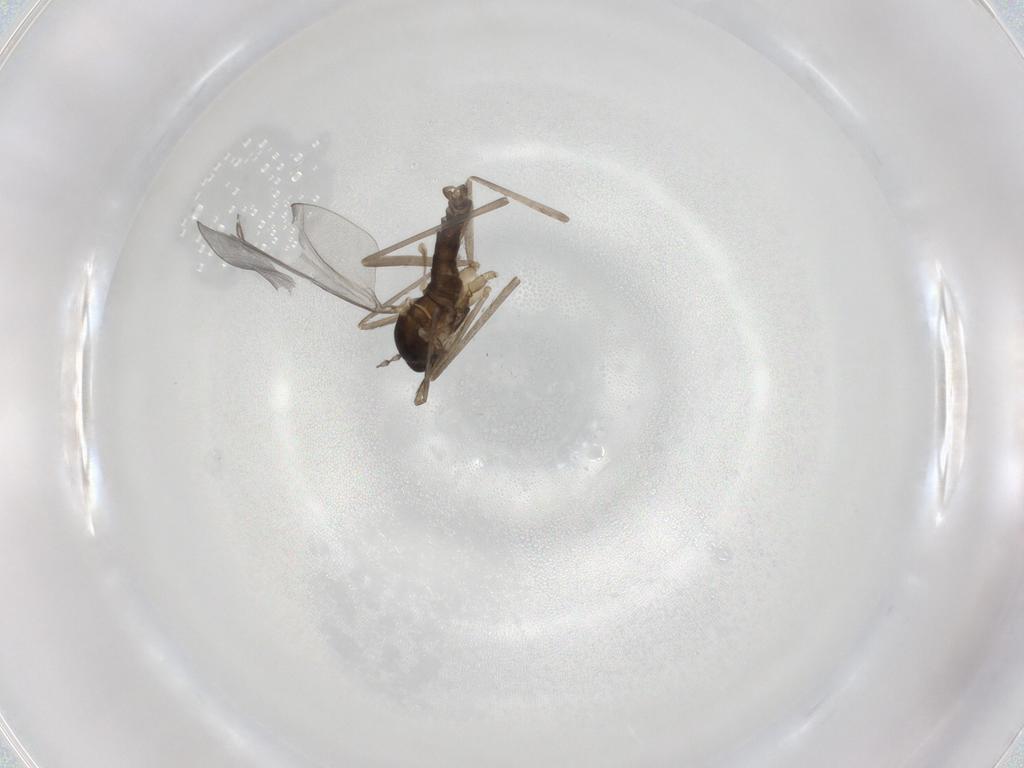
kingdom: Animalia
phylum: Arthropoda
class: Insecta
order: Diptera
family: Cecidomyiidae
